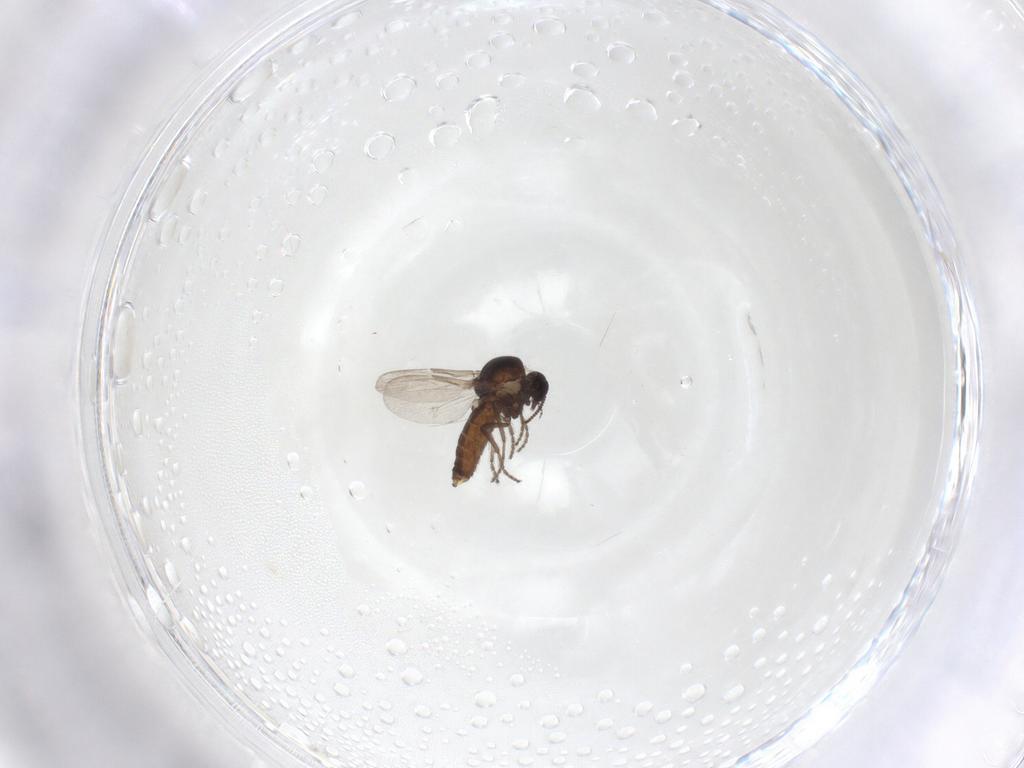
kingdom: Animalia
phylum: Arthropoda
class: Insecta
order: Diptera
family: Ceratopogonidae
